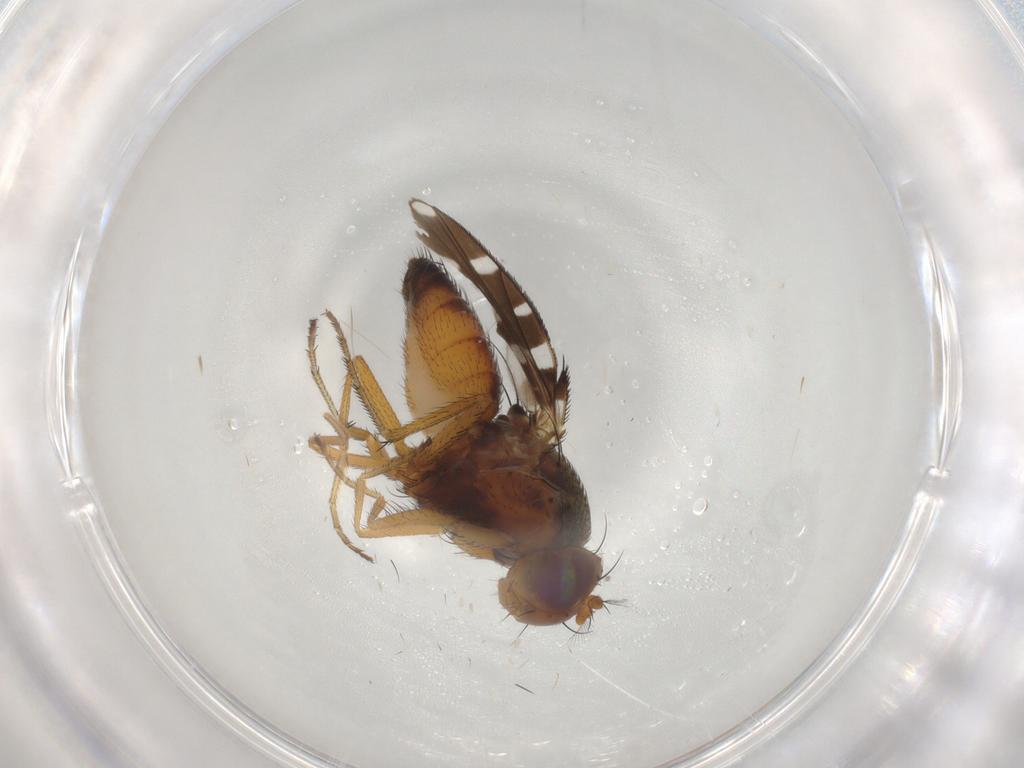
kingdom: Animalia
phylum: Arthropoda
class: Insecta
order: Diptera
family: Ephydridae
